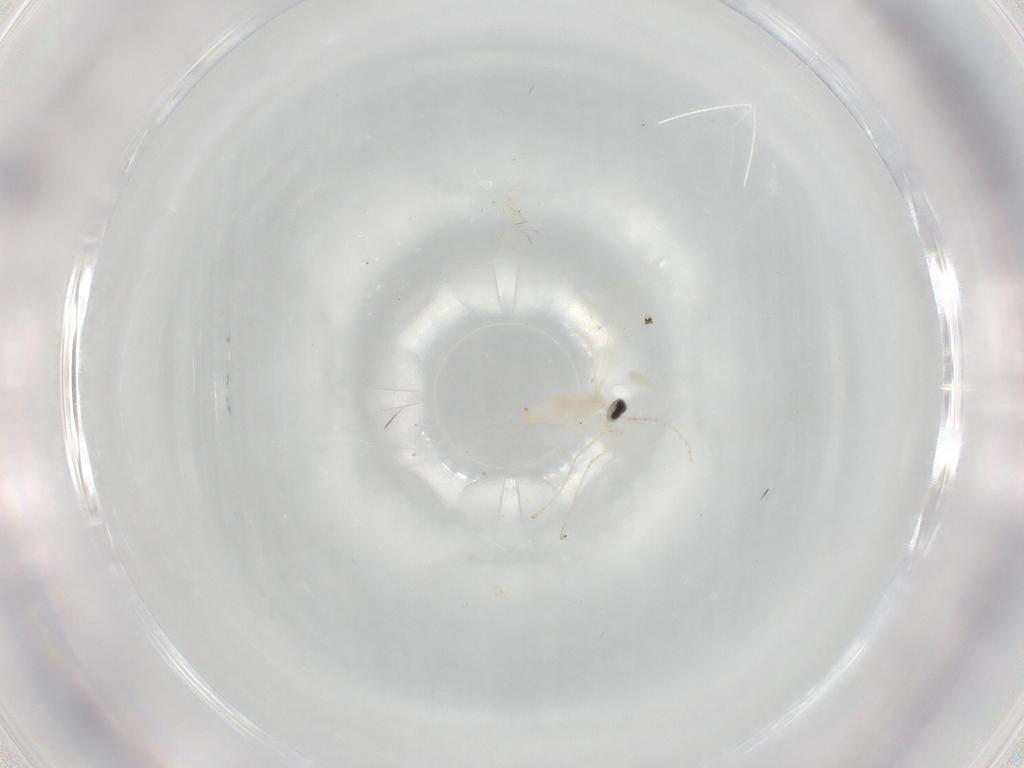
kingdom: Animalia
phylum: Arthropoda
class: Insecta
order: Diptera
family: Cecidomyiidae
